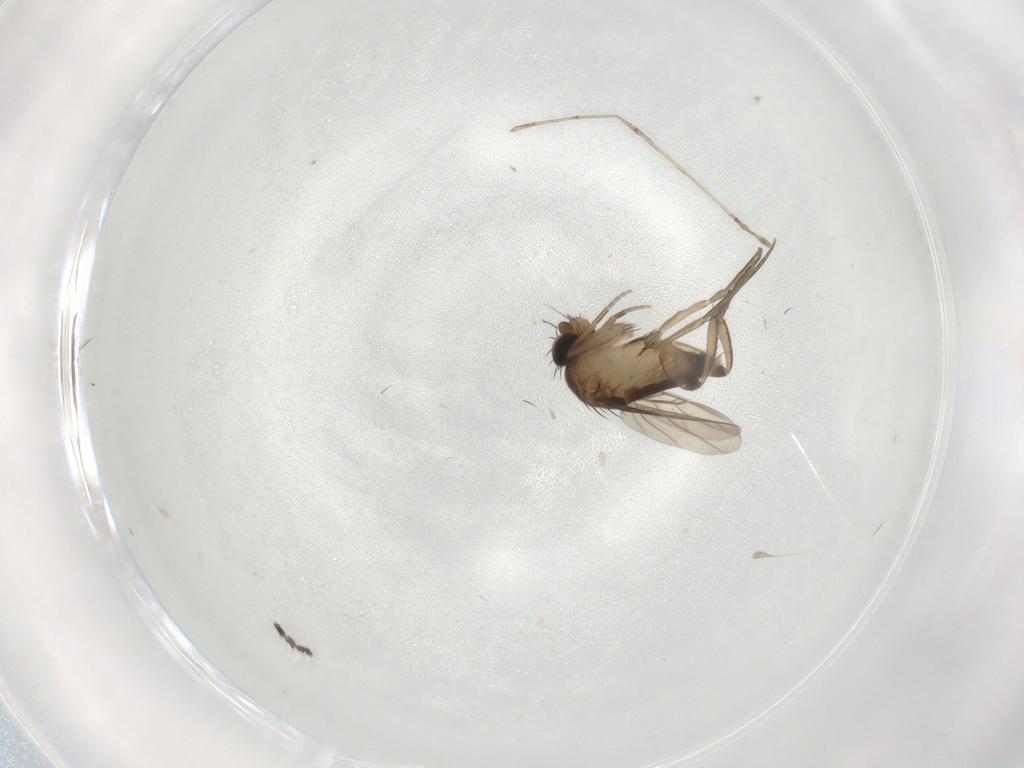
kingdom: Animalia
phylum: Arthropoda
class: Insecta
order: Diptera
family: Phoridae
